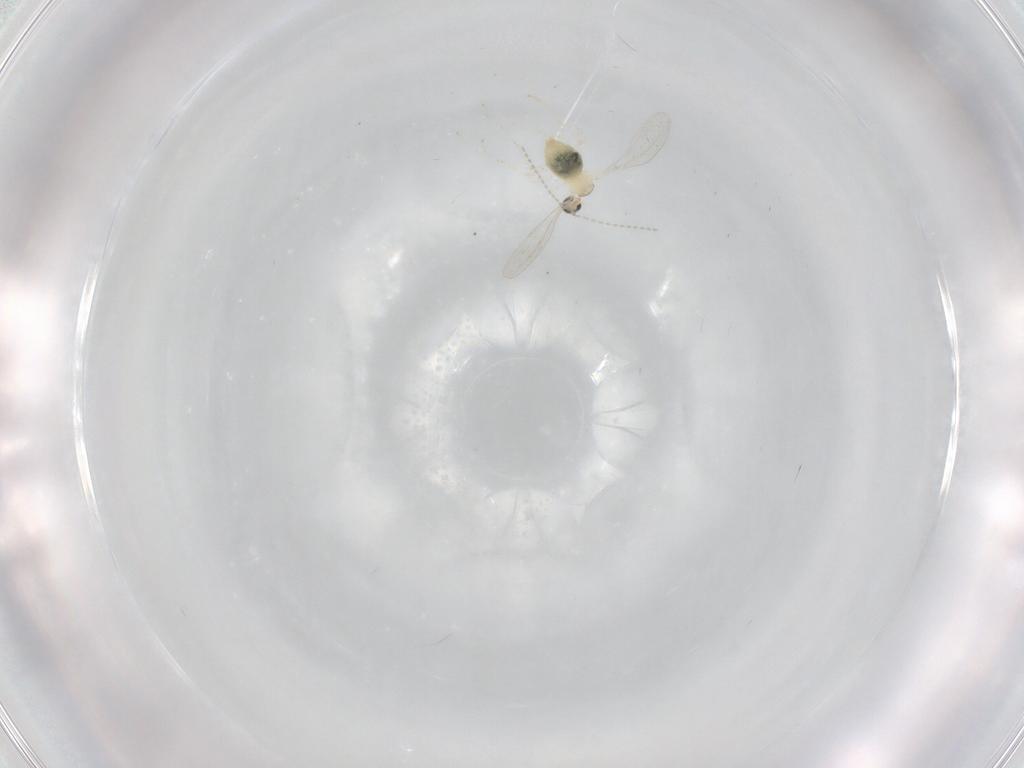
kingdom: Animalia
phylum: Arthropoda
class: Insecta
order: Diptera
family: Cecidomyiidae
